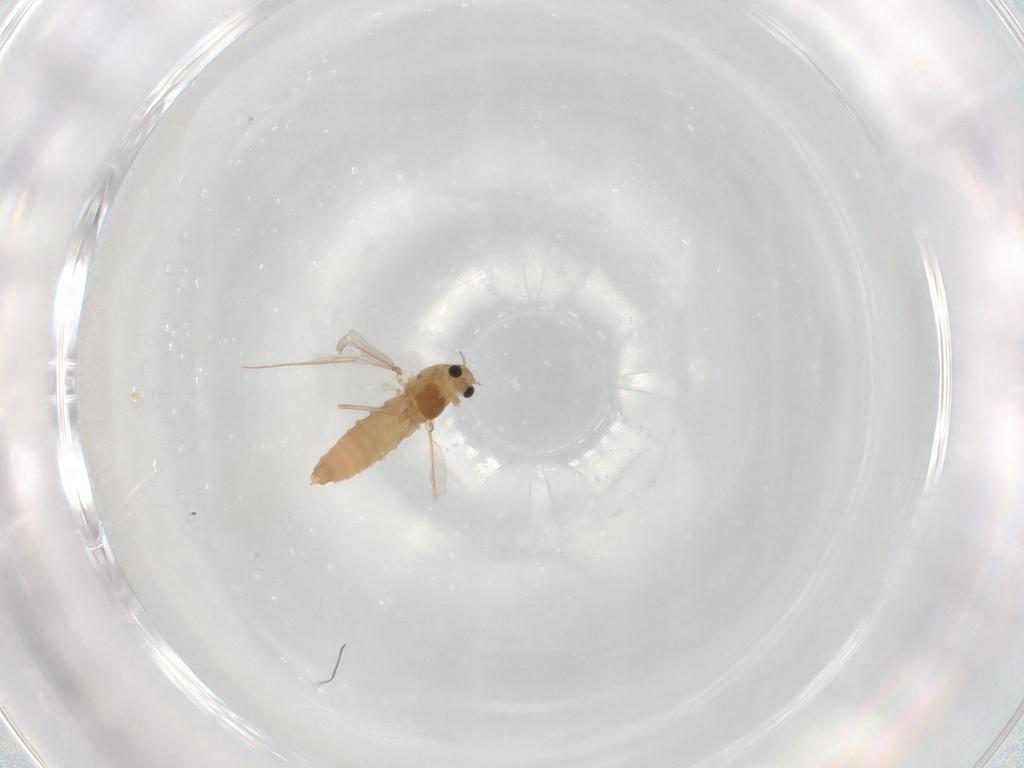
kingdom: Animalia
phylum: Arthropoda
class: Insecta
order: Diptera
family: Chironomidae
